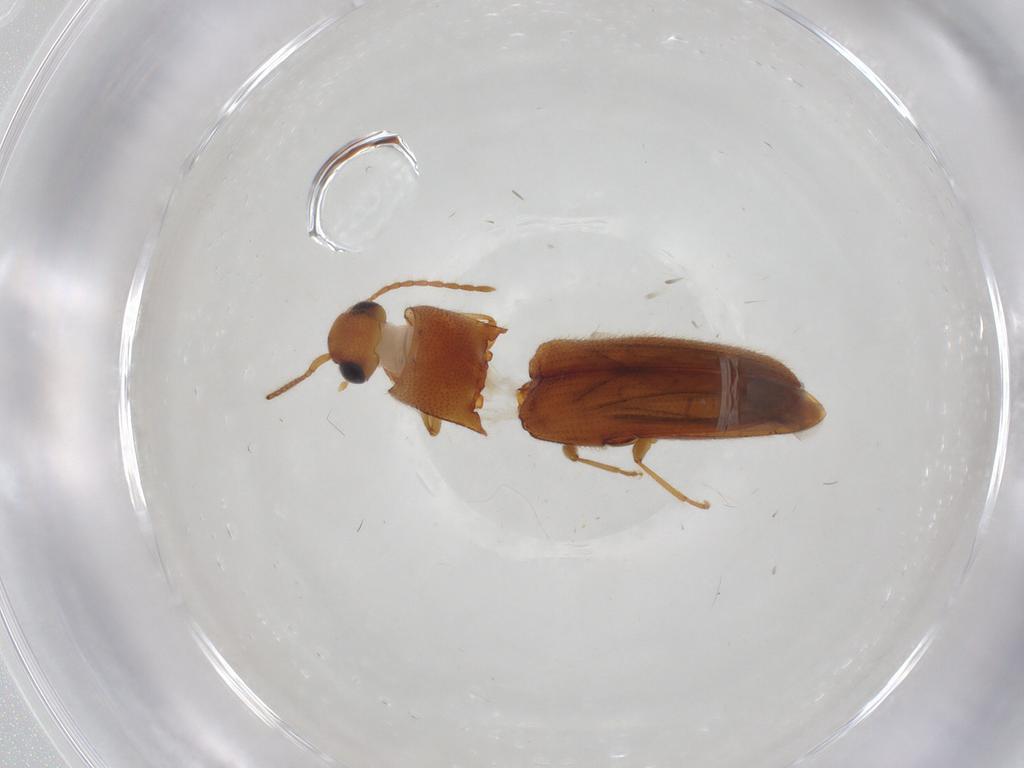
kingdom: Animalia
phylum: Arthropoda
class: Insecta
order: Coleoptera
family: Elateridae
